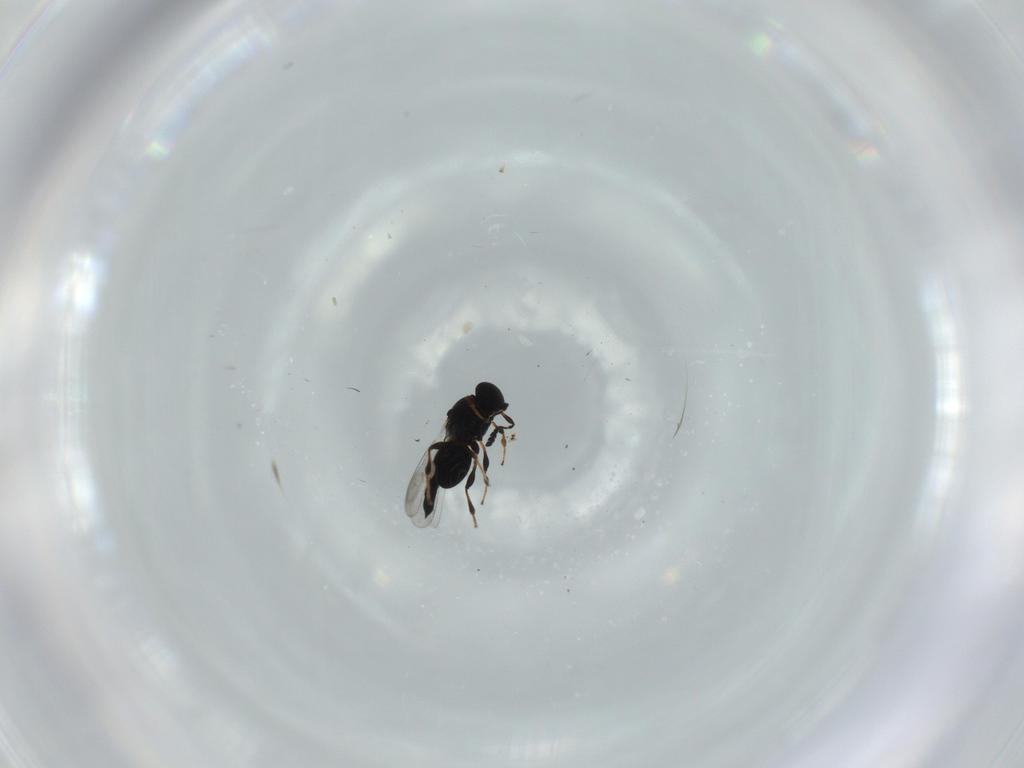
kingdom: Animalia
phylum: Arthropoda
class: Insecta
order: Hymenoptera
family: Platygastridae
